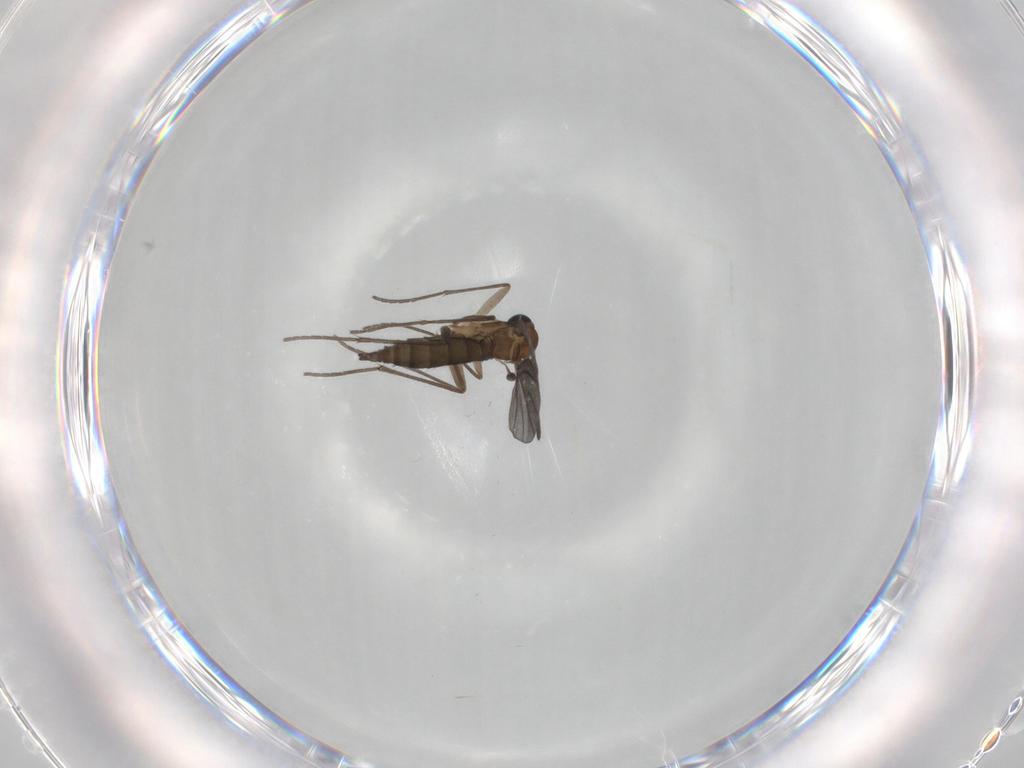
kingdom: Animalia
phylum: Arthropoda
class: Insecta
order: Diptera
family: Sciaridae
